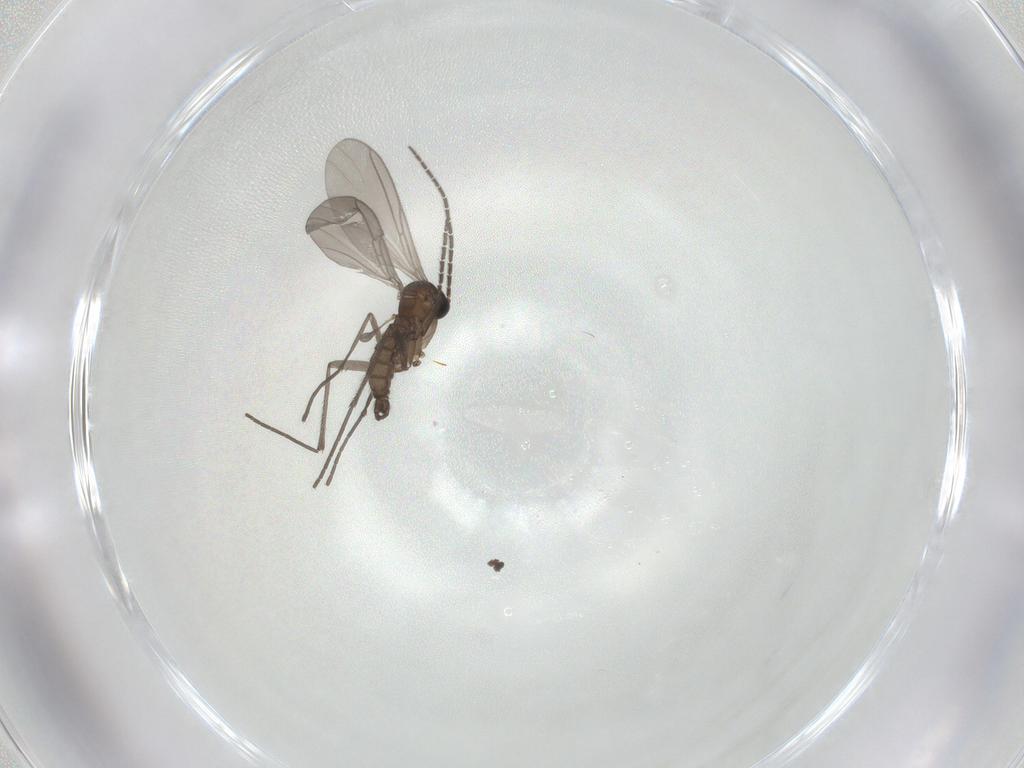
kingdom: Animalia
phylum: Arthropoda
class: Insecta
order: Diptera
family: Sciaridae
